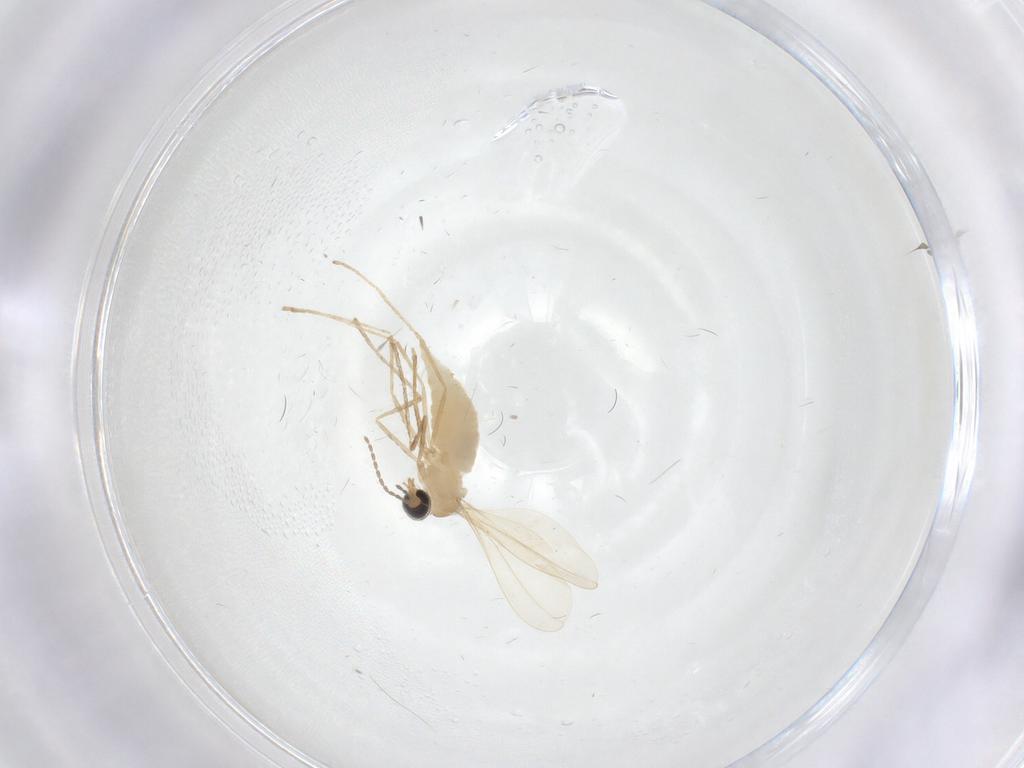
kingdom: Animalia
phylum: Arthropoda
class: Insecta
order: Diptera
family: Ceratopogonidae
